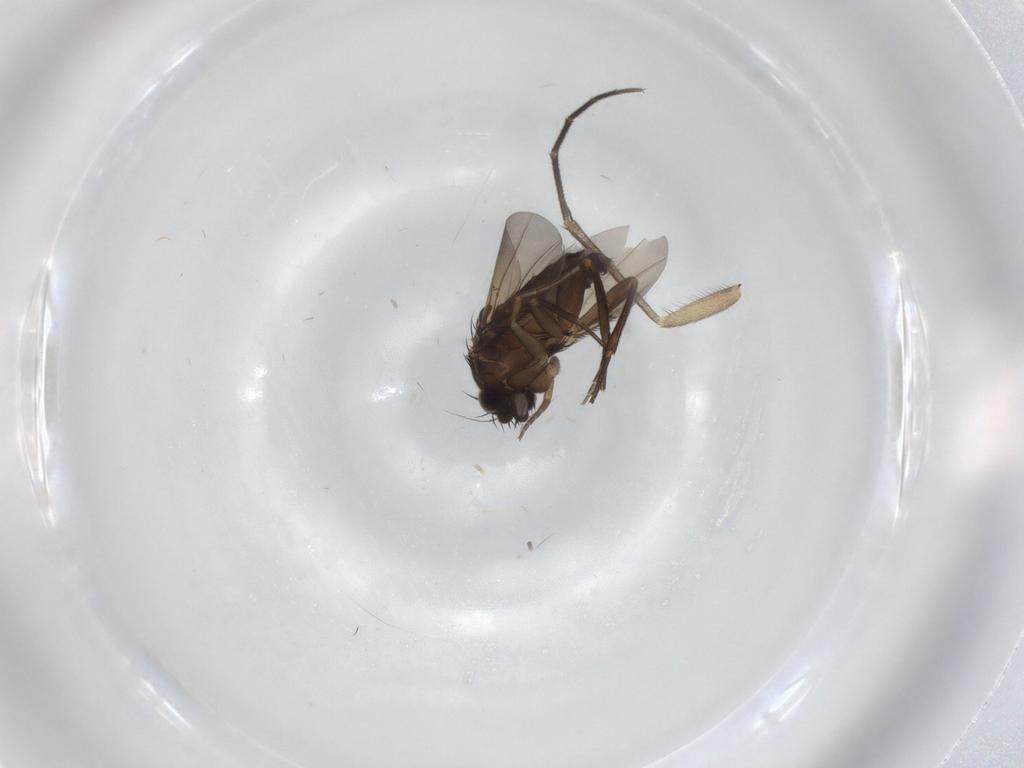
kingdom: Animalia
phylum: Arthropoda
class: Insecta
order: Diptera
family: Phoridae
